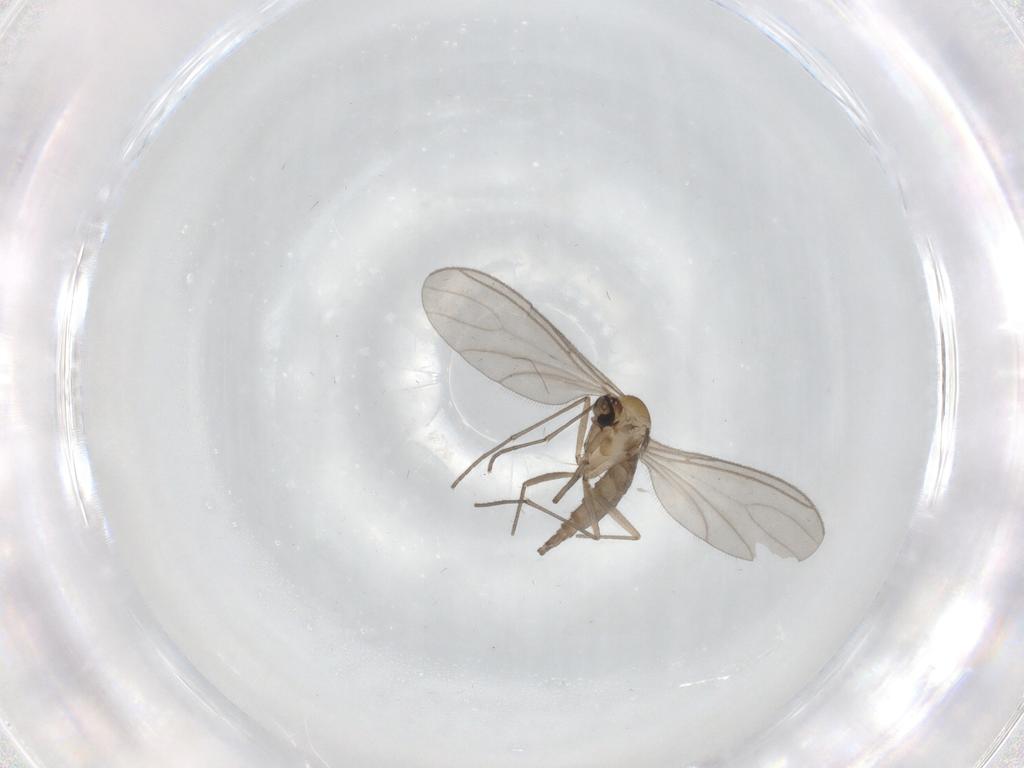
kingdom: Animalia
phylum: Arthropoda
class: Insecta
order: Diptera
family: Sciaridae
